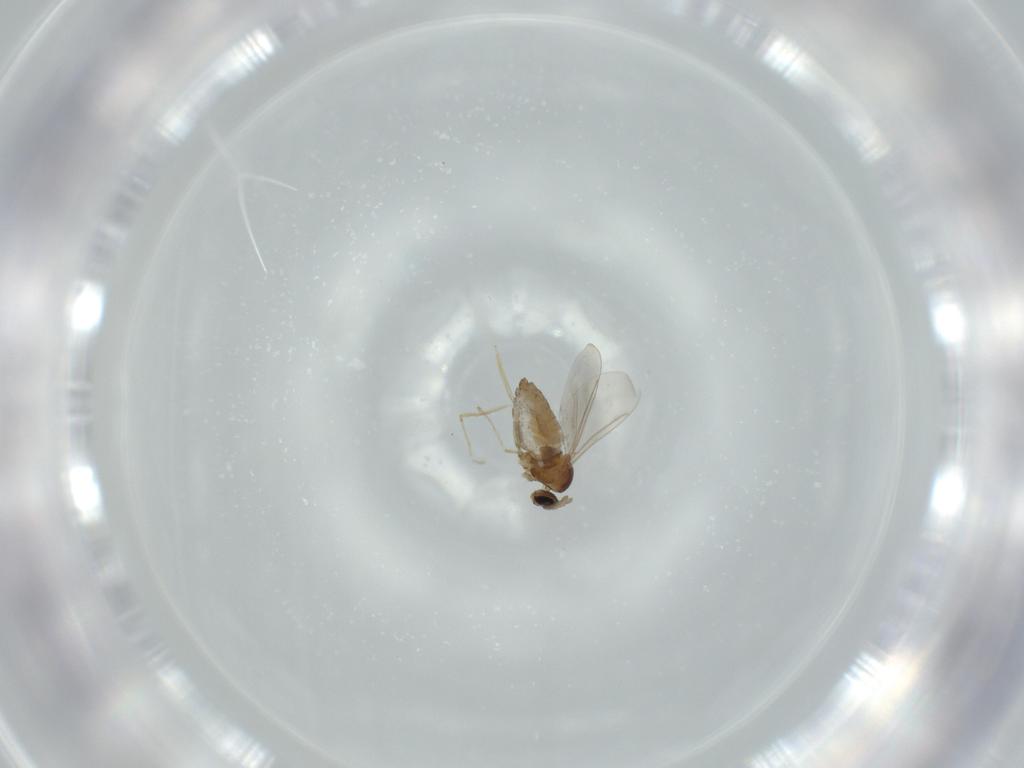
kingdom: Animalia
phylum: Arthropoda
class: Insecta
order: Diptera
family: Cecidomyiidae
